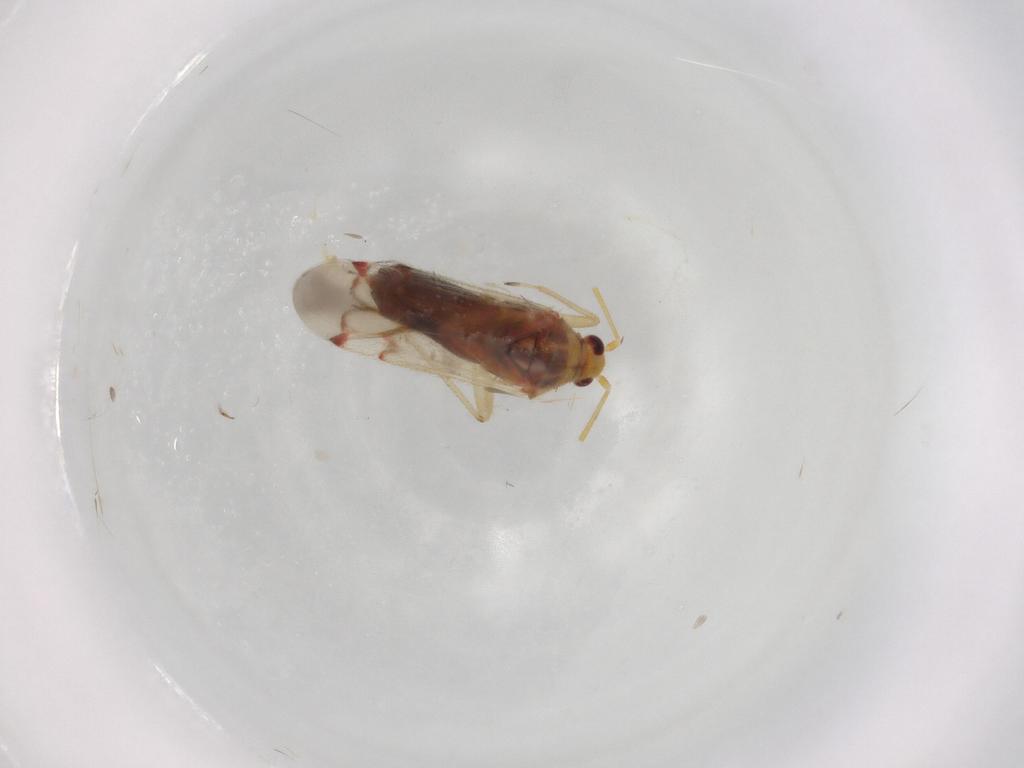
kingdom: Animalia
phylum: Arthropoda
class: Insecta
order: Hemiptera
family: Miridae
